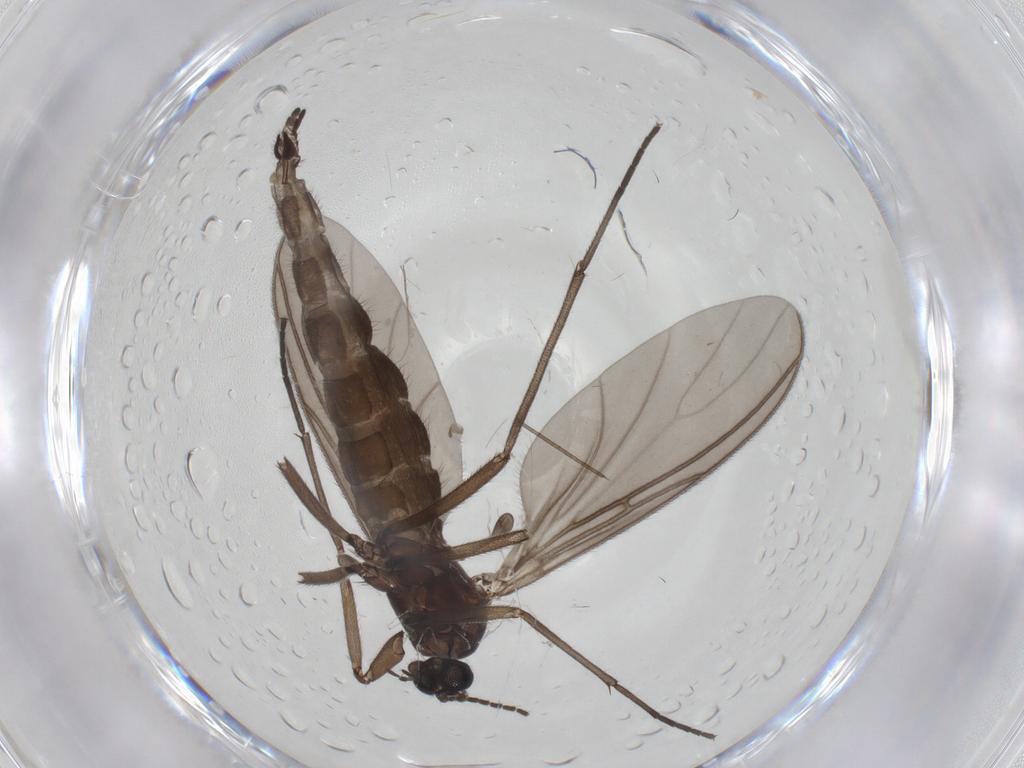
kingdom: Animalia
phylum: Arthropoda
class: Insecta
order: Diptera
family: Sciaridae
